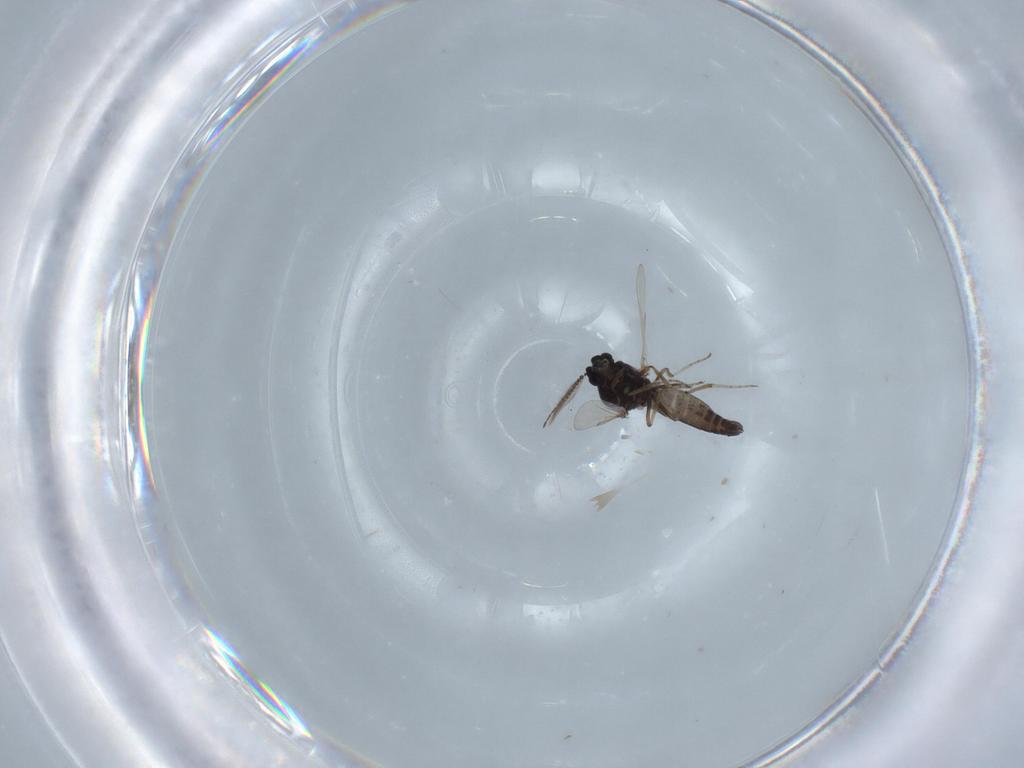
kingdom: Animalia
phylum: Arthropoda
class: Insecta
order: Diptera
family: Ceratopogonidae
